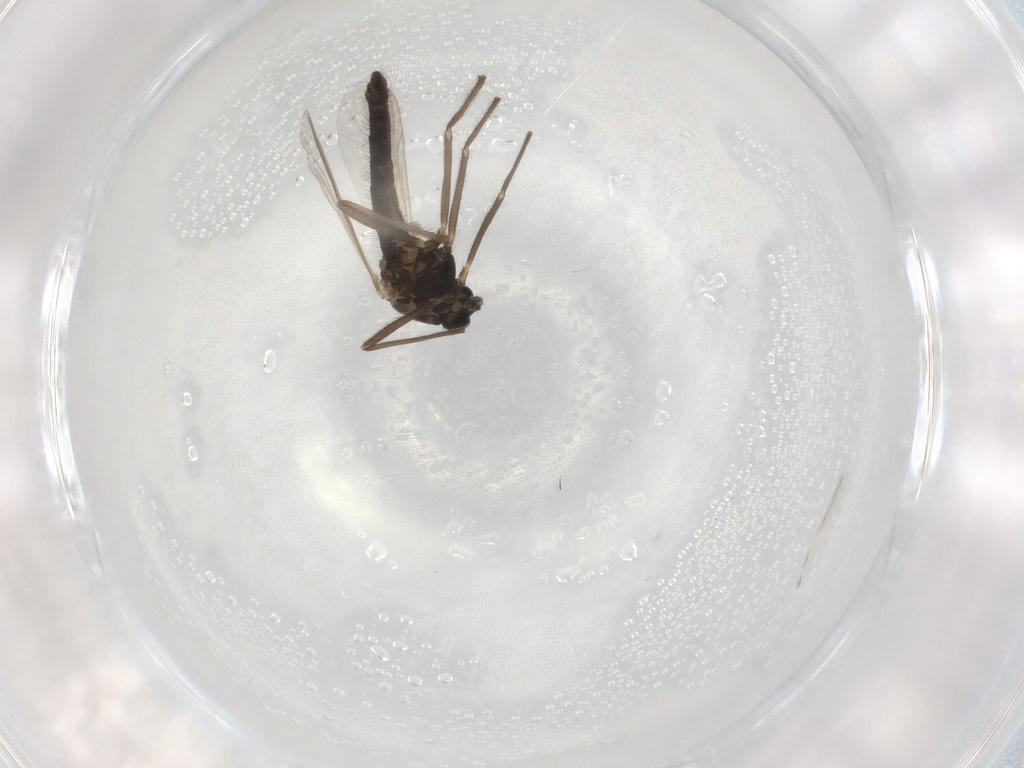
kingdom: Animalia
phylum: Arthropoda
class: Insecta
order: Diptera
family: Chironomidae
